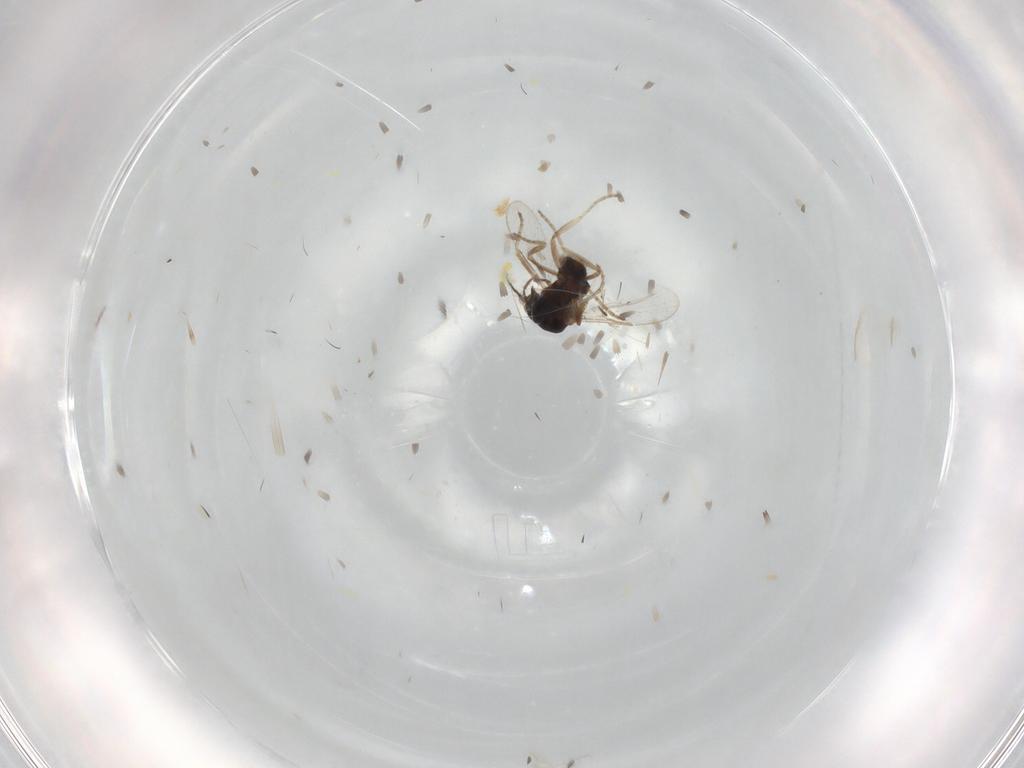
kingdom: Animalia
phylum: Arthropoda
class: Insecta
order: Diptera
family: Ceratopogonidae
